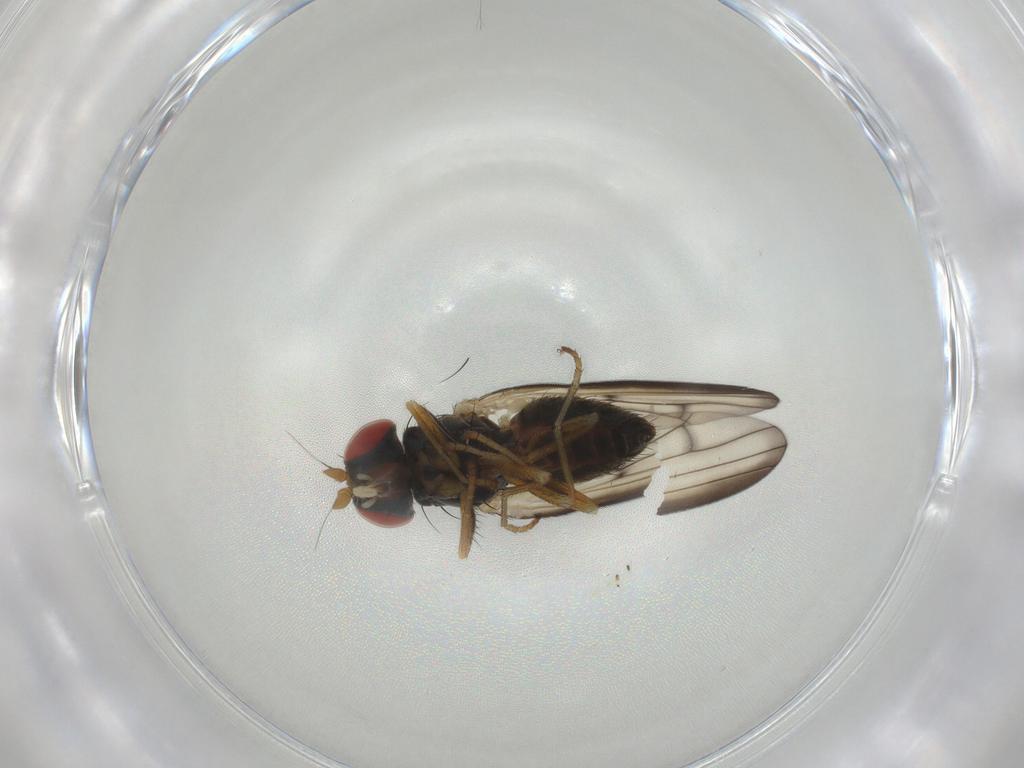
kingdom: Animalia
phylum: Arthropoda
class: Insecta
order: Diptera
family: Chamaemyiidae
